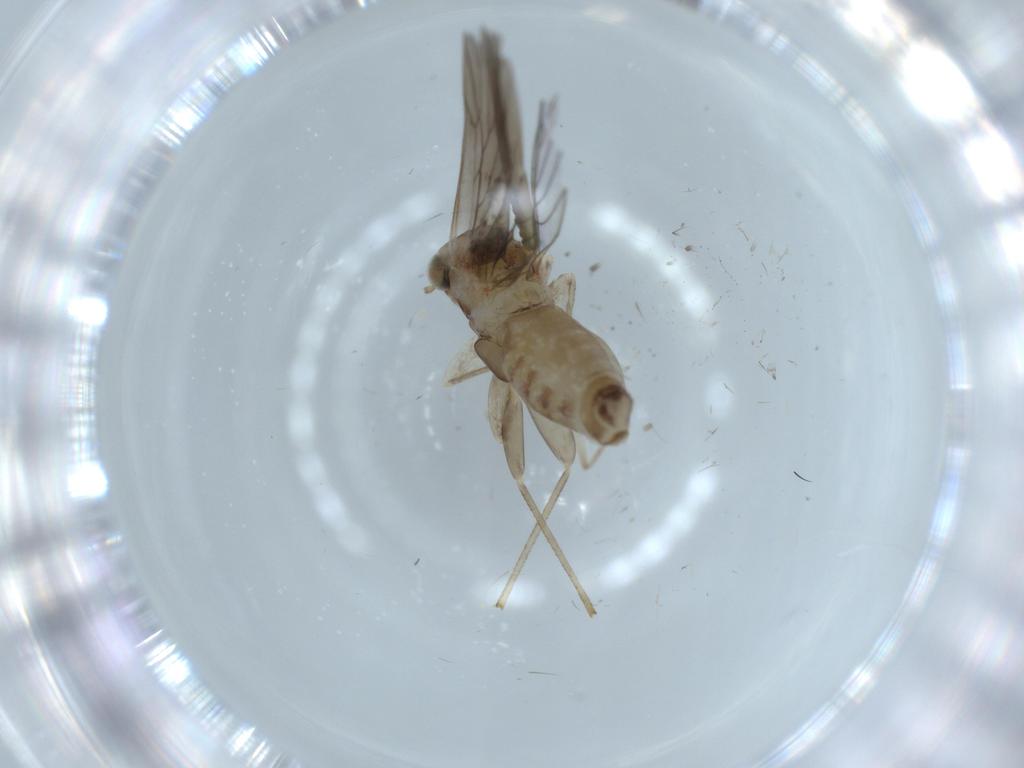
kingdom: Animalia
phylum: Arthropoda
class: Insecta
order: Psocodea
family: Lepidopsocidae
